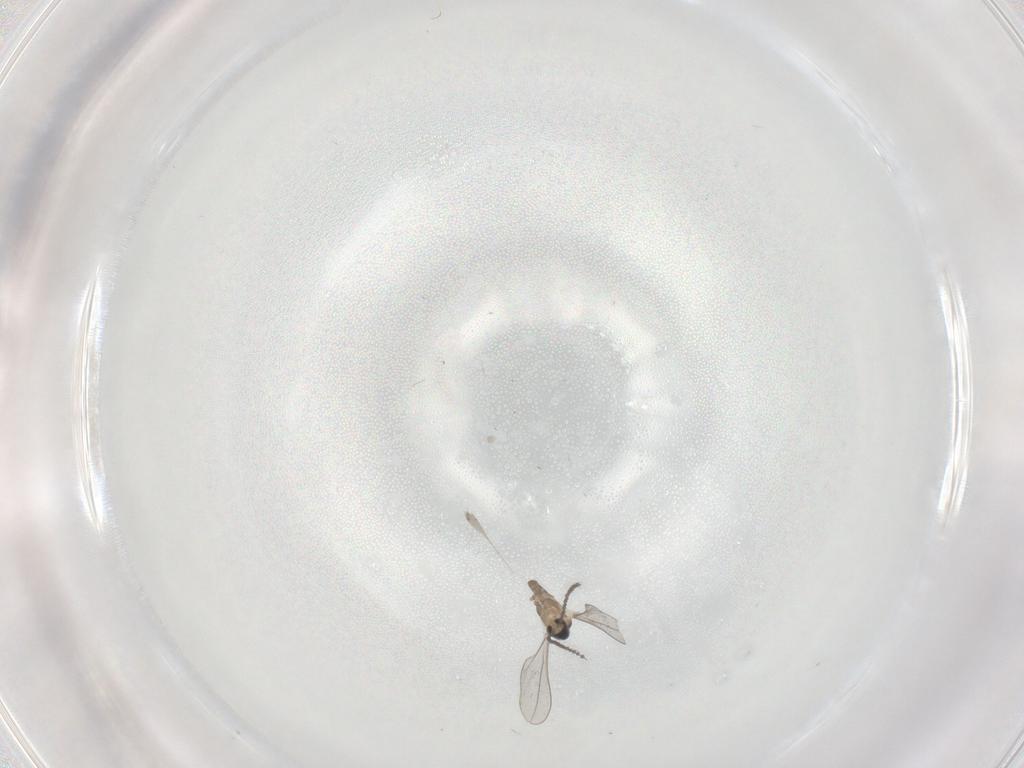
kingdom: Animalia
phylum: Arthropoda
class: Insecta
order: Diptera
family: Cecidomyiidae
